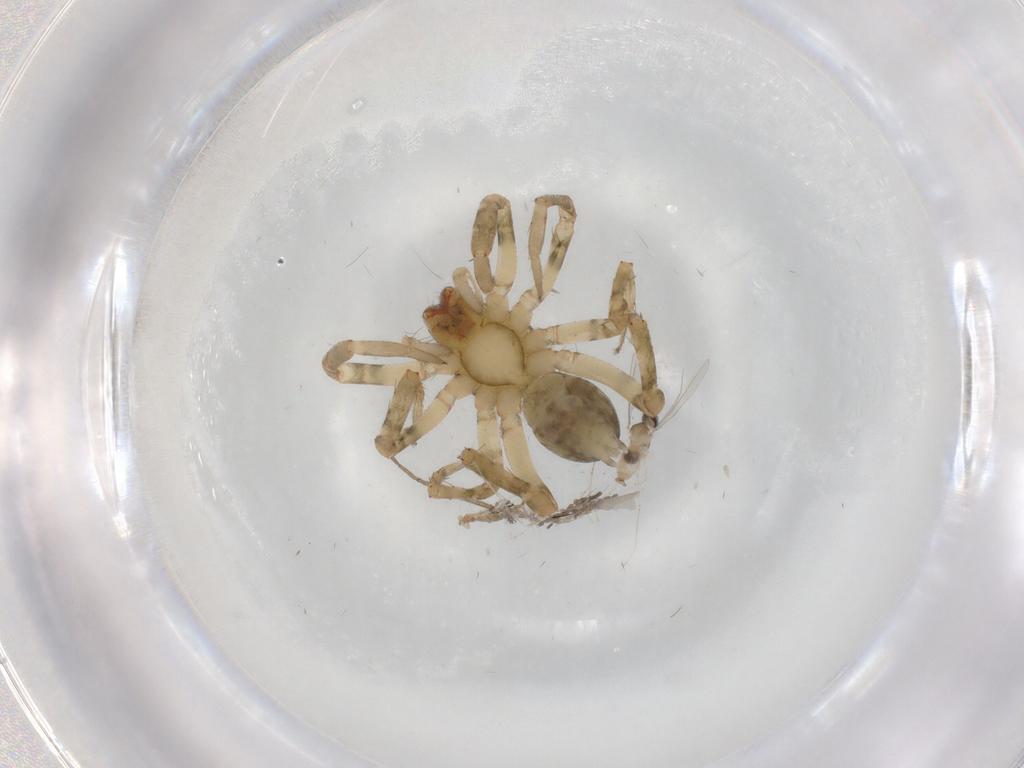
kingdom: Animalia
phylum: Arthropoda
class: Arachnida
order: Araneae
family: Anyphaenidae
